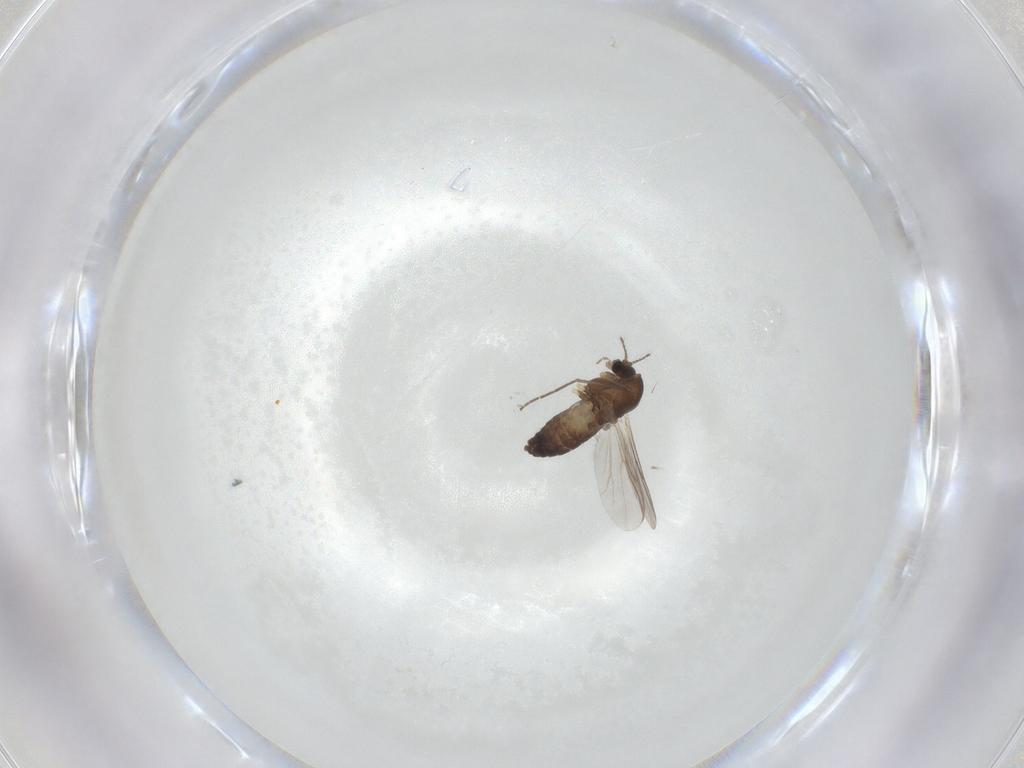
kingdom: Animalia
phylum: Arthropoda
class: Insecta
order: Diptera
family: Chironomidae
